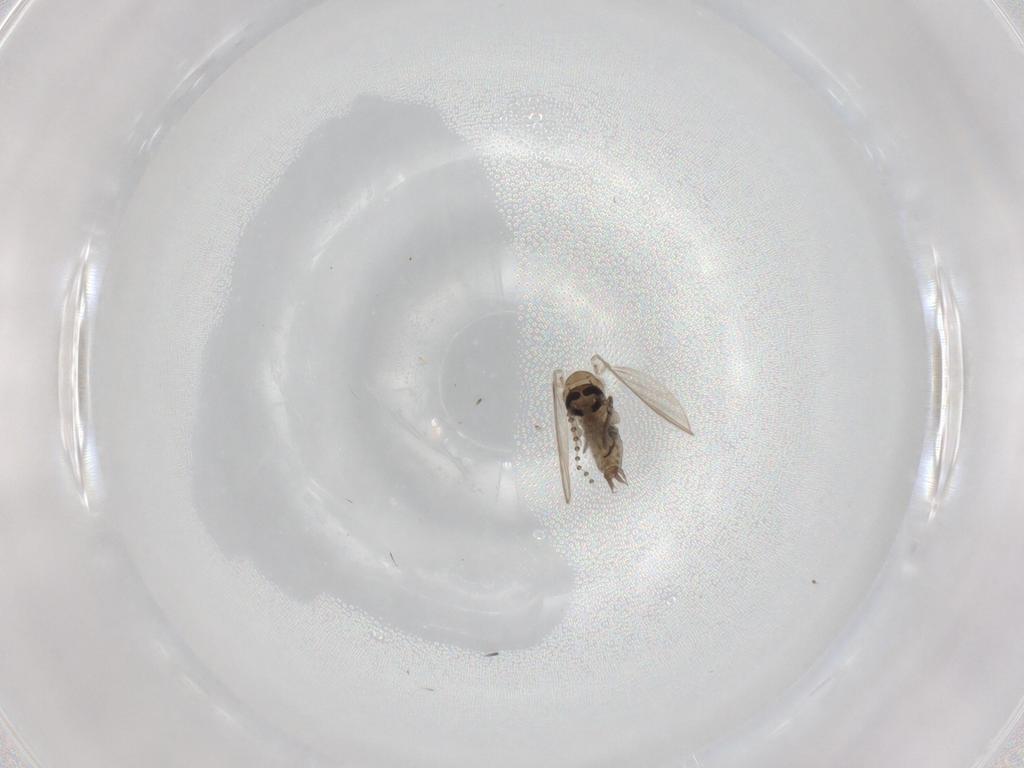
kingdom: Animalia
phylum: Arthropoda
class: Insecta
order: Diptera
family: Psychodidae
